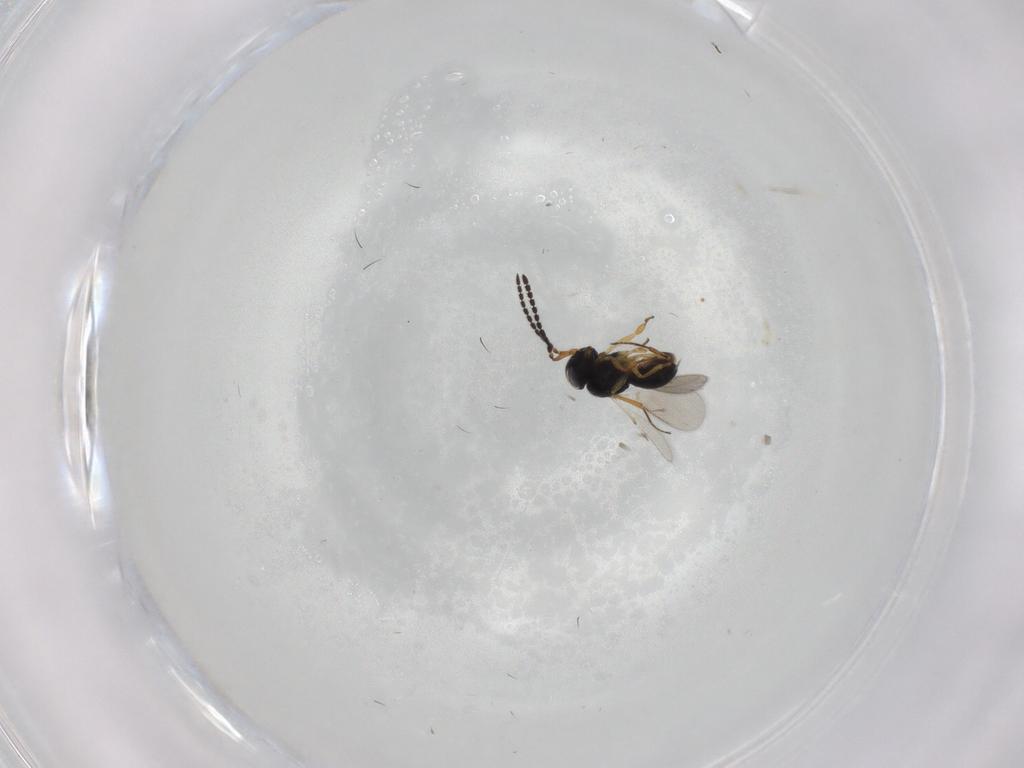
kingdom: Animalia
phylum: Arthropoda
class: Insecta
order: Hymenoptera
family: Scelionidae
